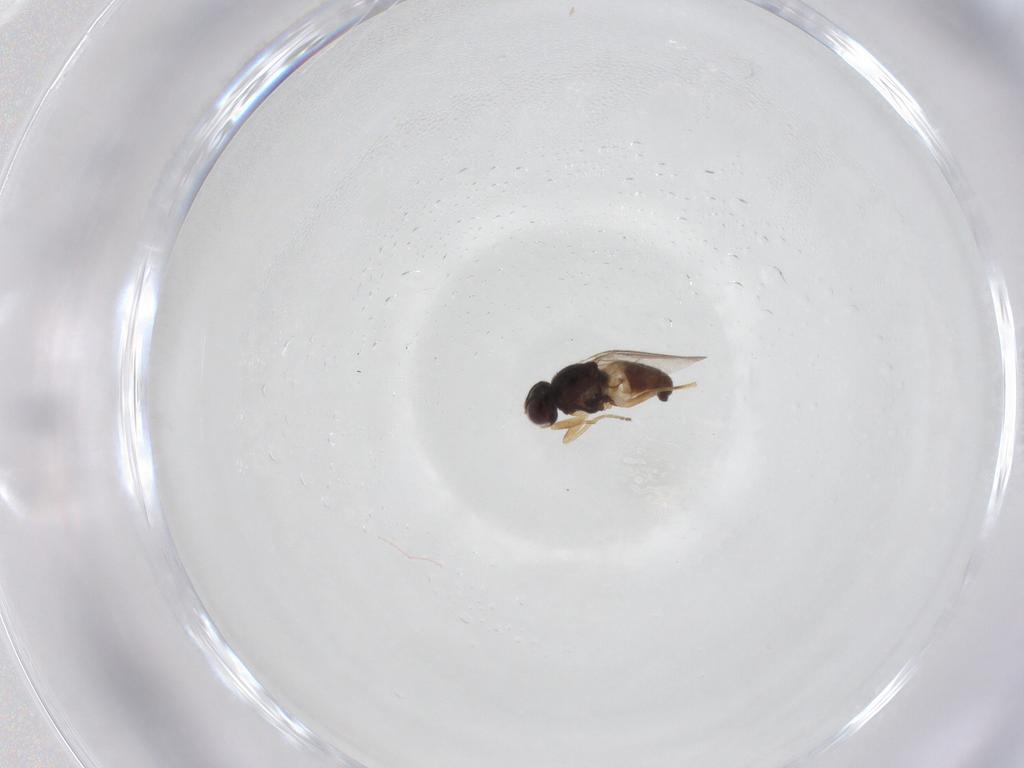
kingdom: Animalia
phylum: Arthropoda
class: Insecta
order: Diptera
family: Chloropidae
